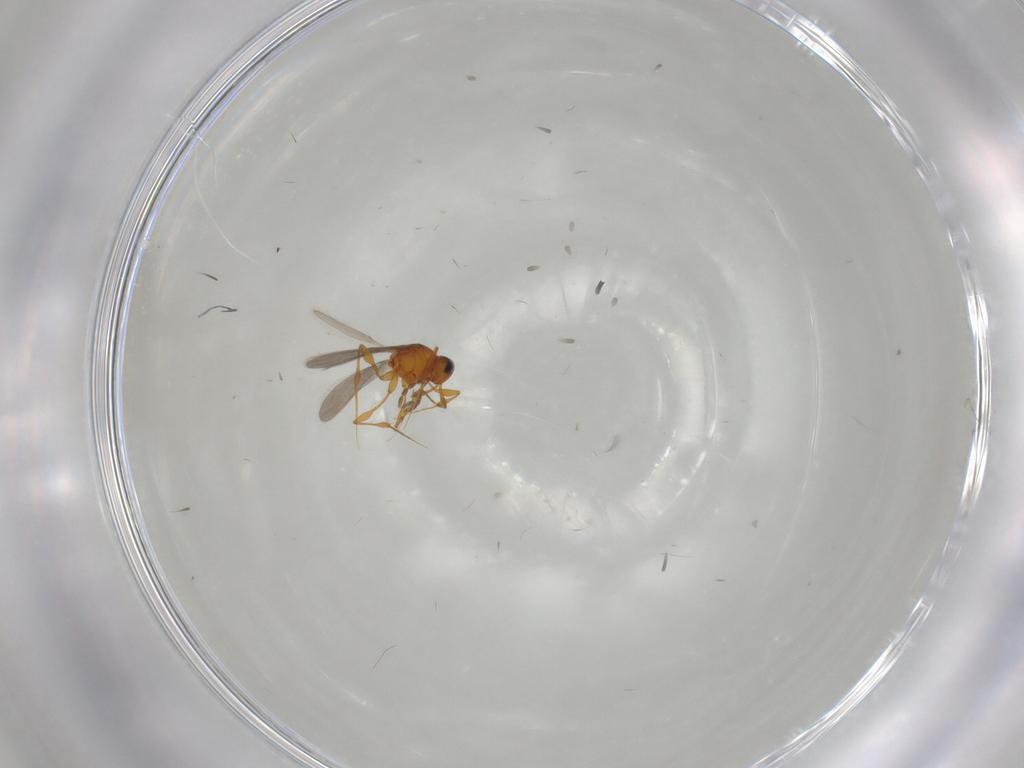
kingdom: Animalia
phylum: Arthropoda
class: Insecta
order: Hymenoptera
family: Platygastridae
